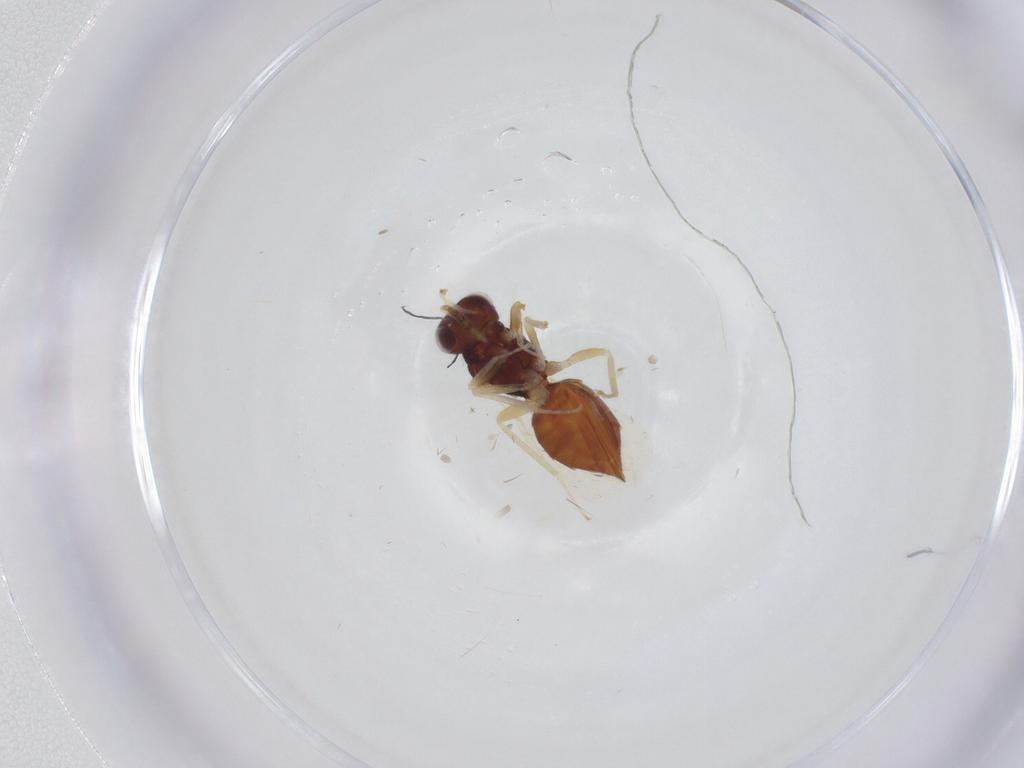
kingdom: Animalia
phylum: Arthropoda
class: Insecta
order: Hymenoptera
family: Eulophidae
